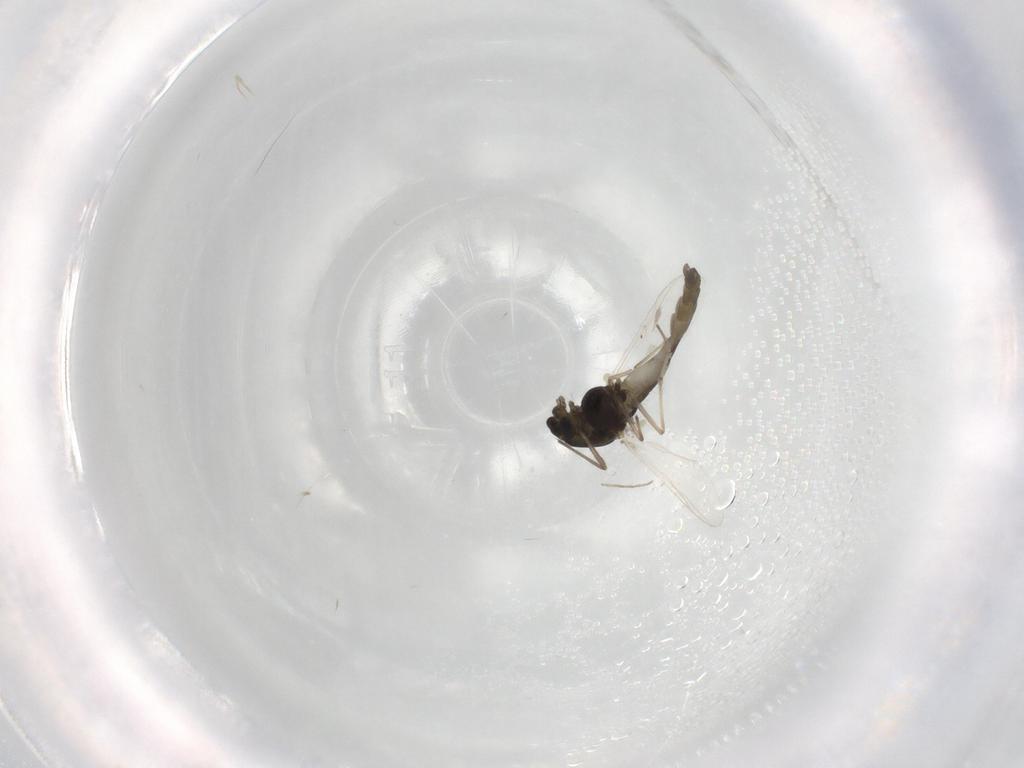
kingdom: Animalia
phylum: Arthropoda
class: Insecta
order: Diptera
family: Chironomidae
